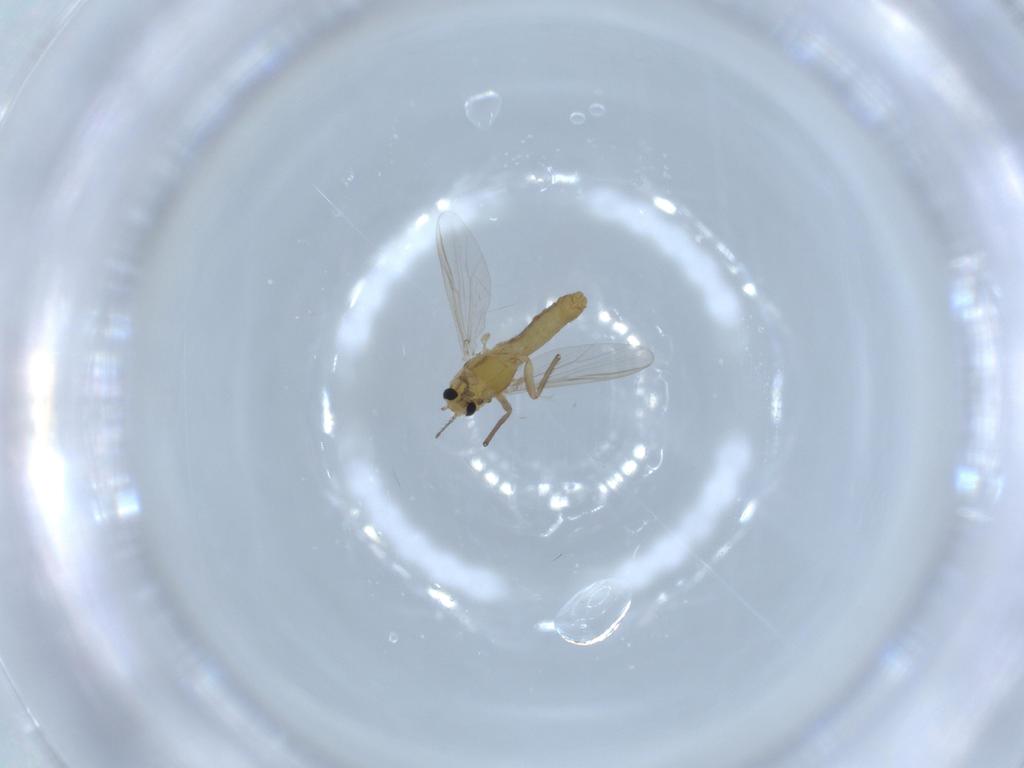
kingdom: Animalia
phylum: Arthropoda
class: Insecta
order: Diptera
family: Chironomidae
